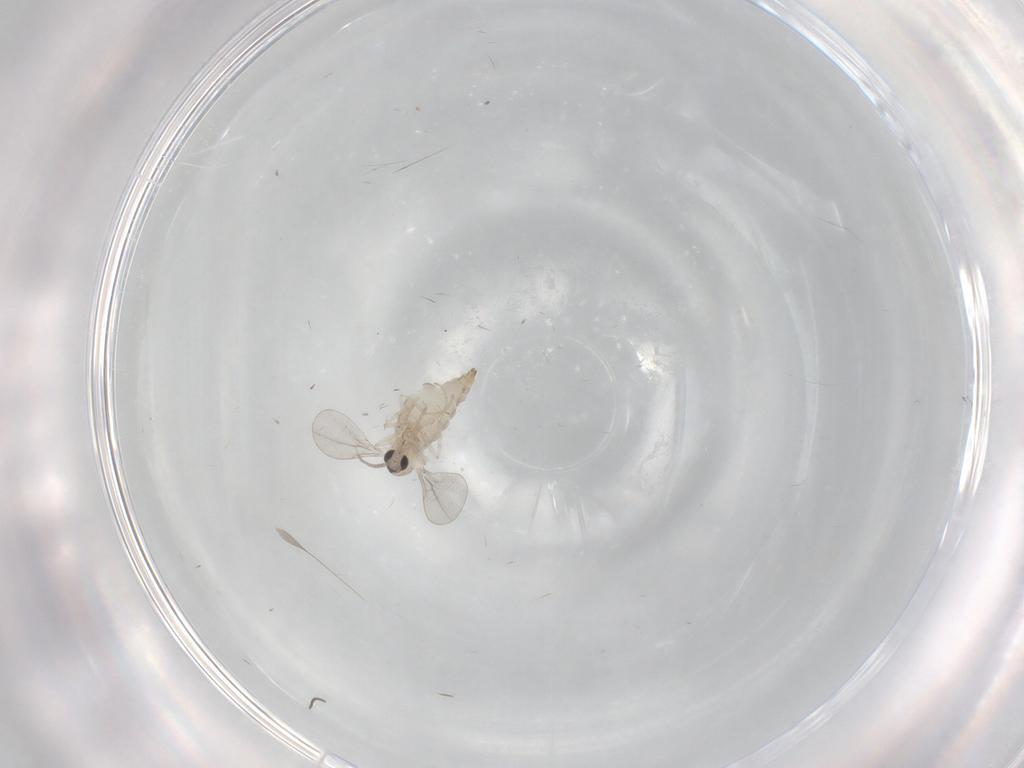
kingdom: Animalia
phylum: Arthropoda
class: Insecta
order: Diptera
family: Cecidomyiidae
